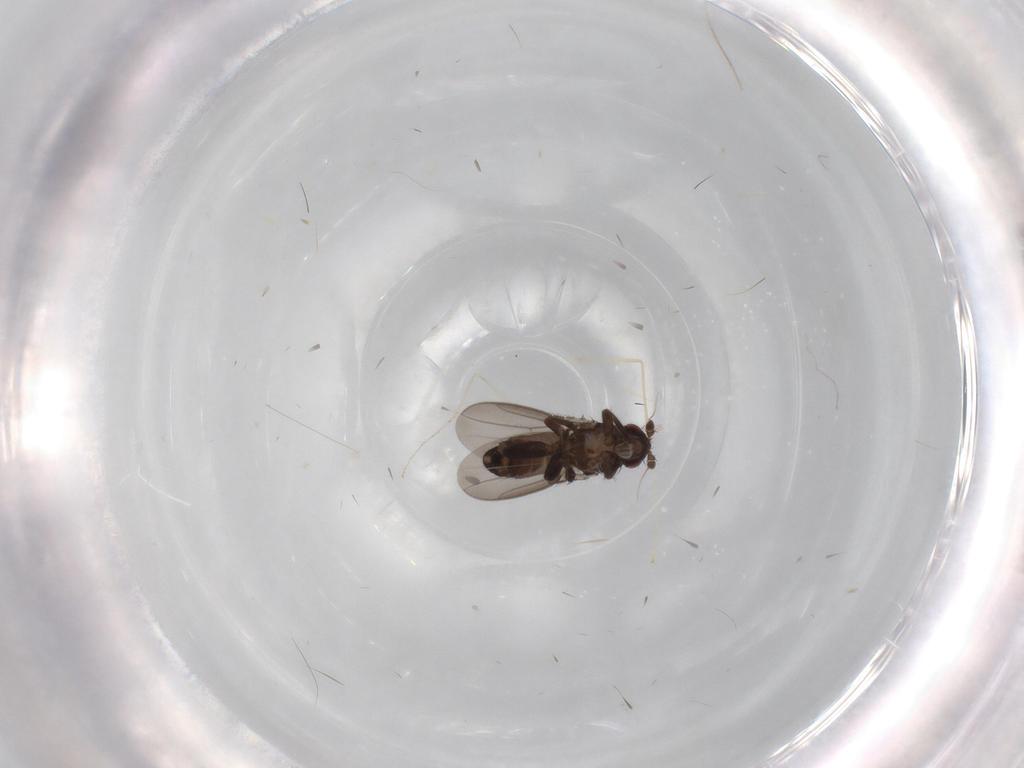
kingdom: Animalia
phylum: Arthropoda
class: Insecta
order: Diptera
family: Sphaeroceridae
